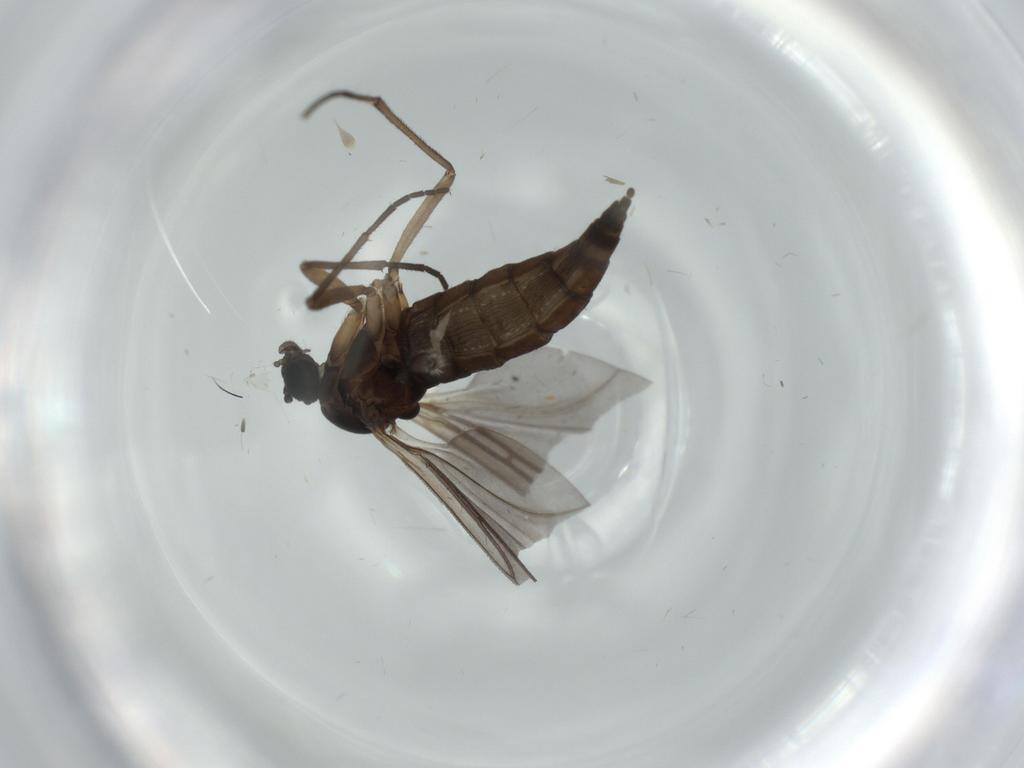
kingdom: Animalia
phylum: Arthropoda
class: Insecta
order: Diptera
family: Sciaridae
